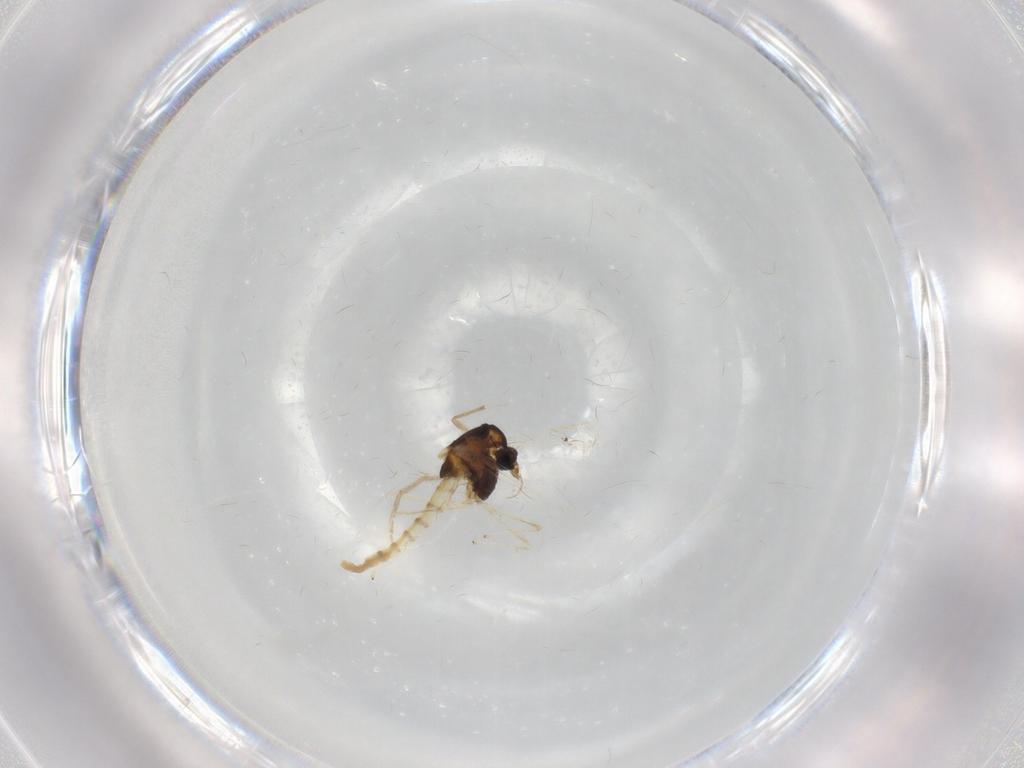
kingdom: Animalia
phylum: Arthropoda
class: Insecta
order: Diptera
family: Chironomidae
